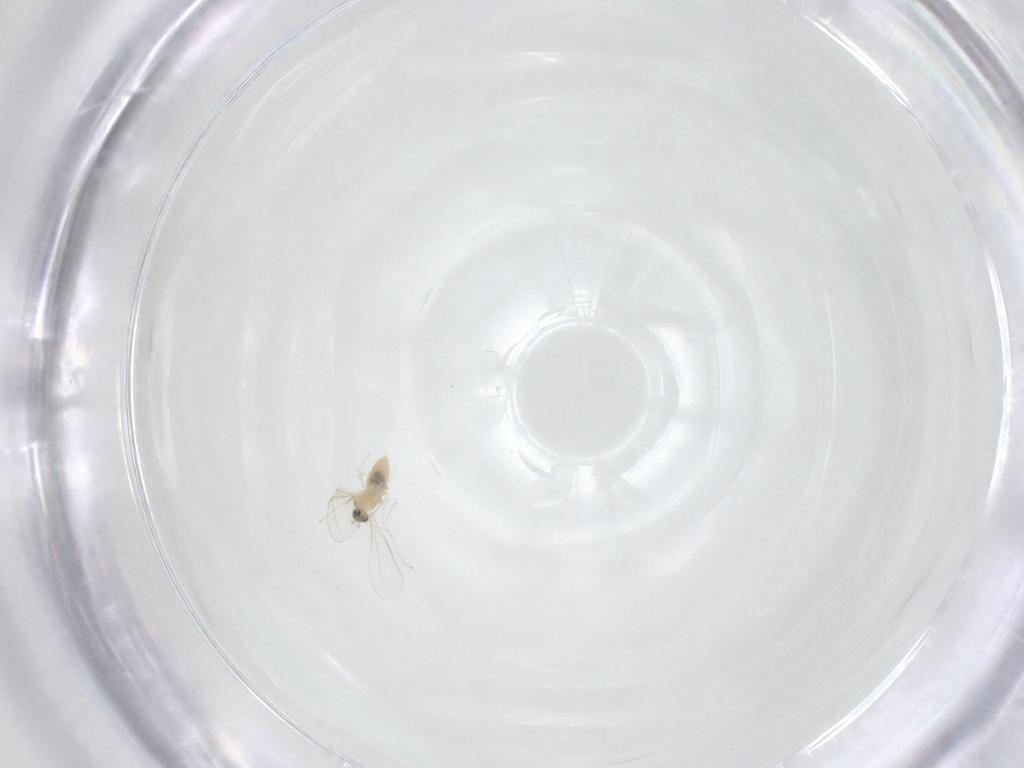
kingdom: Animalia
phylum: Arthropoda
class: Insecta
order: Diptera
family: Cecidomyiidae
